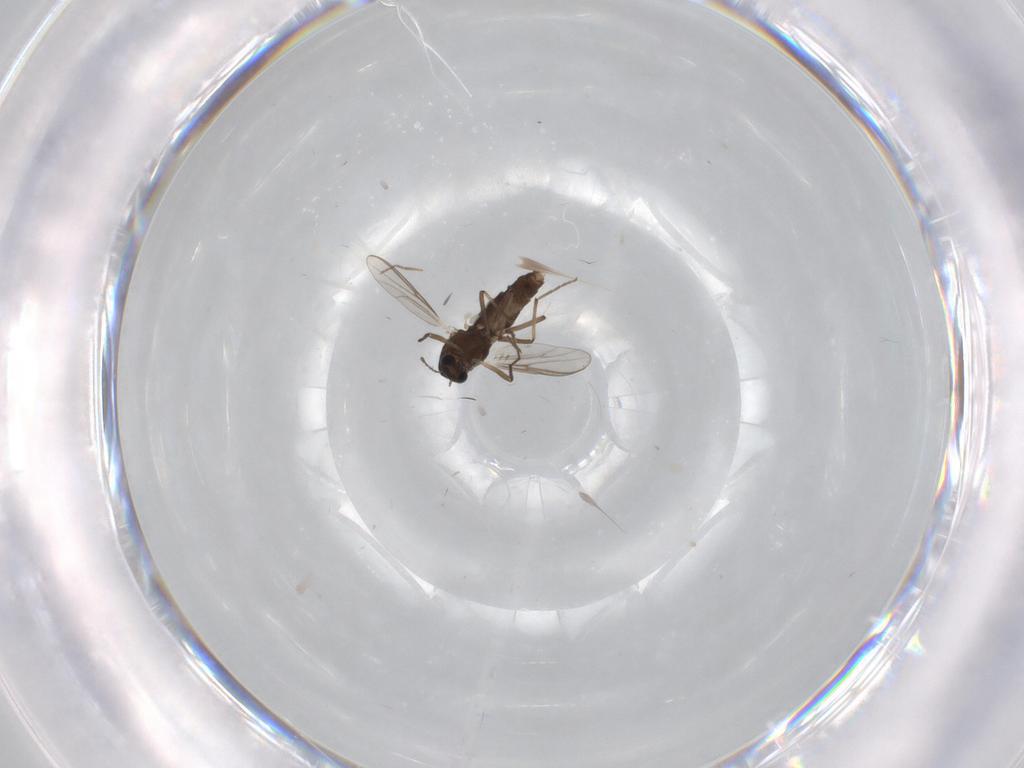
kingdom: Animalia
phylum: Arthropoda
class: Insecta
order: Diptera
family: Chironomidae
